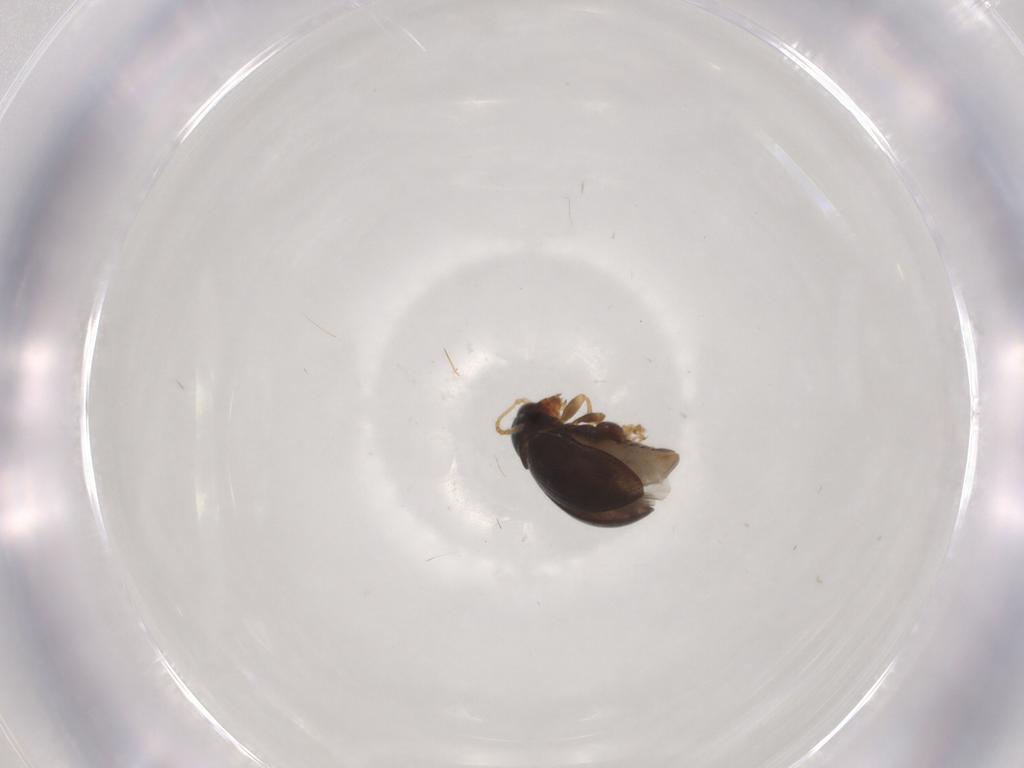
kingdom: Animalia
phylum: Arthropoda
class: Insecta
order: Coleoptera
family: Chrysomelidae
